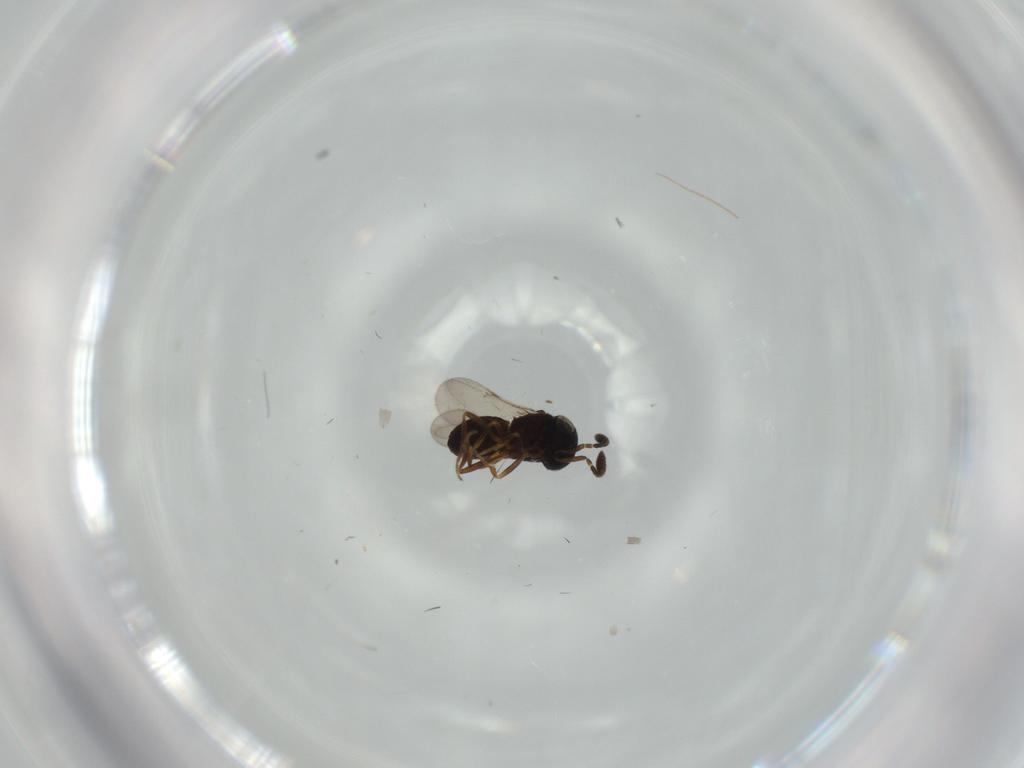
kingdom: Animalia
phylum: Arthropoda
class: Insecta
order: Coleoptera
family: Curculionidae
